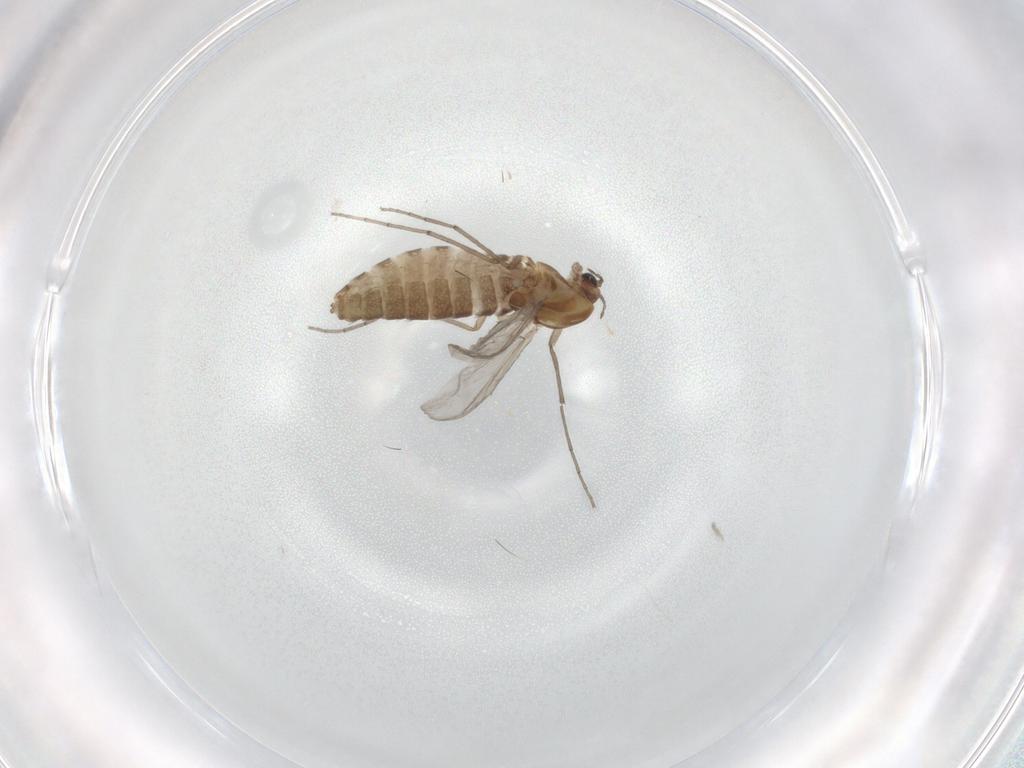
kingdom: Animalia
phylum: Arthropoda
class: Insecta
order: Diptera
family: Chironomidae
